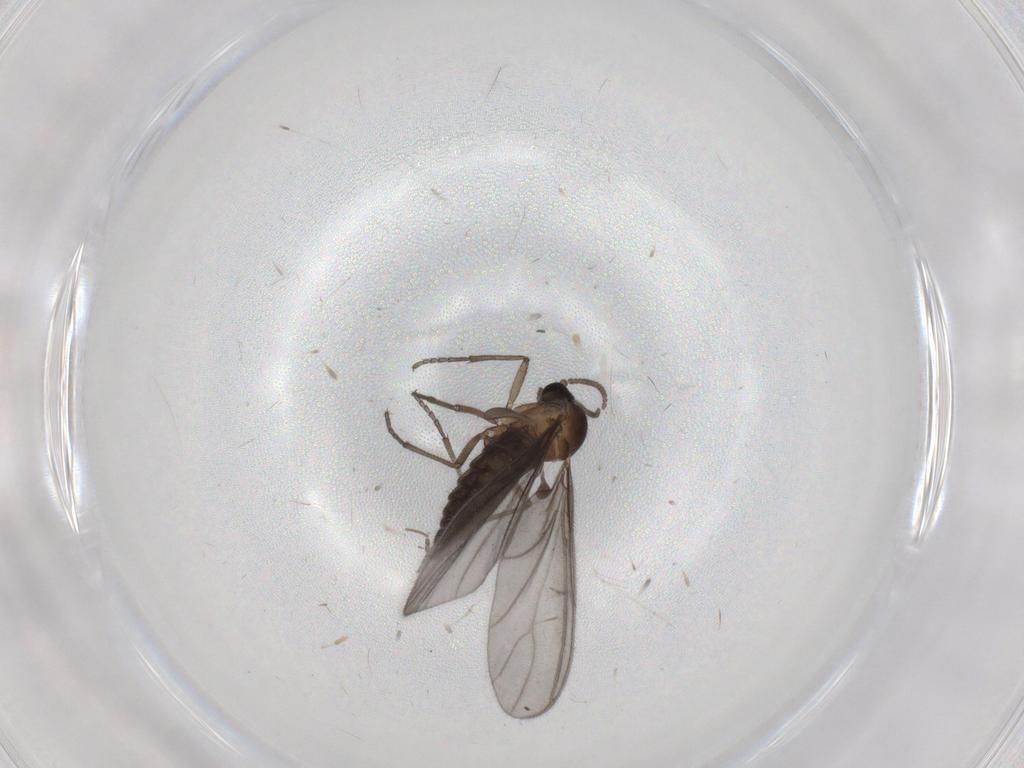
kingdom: Animalia
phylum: Arthropoda
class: Insecta
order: Diptera
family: Sciaridae
